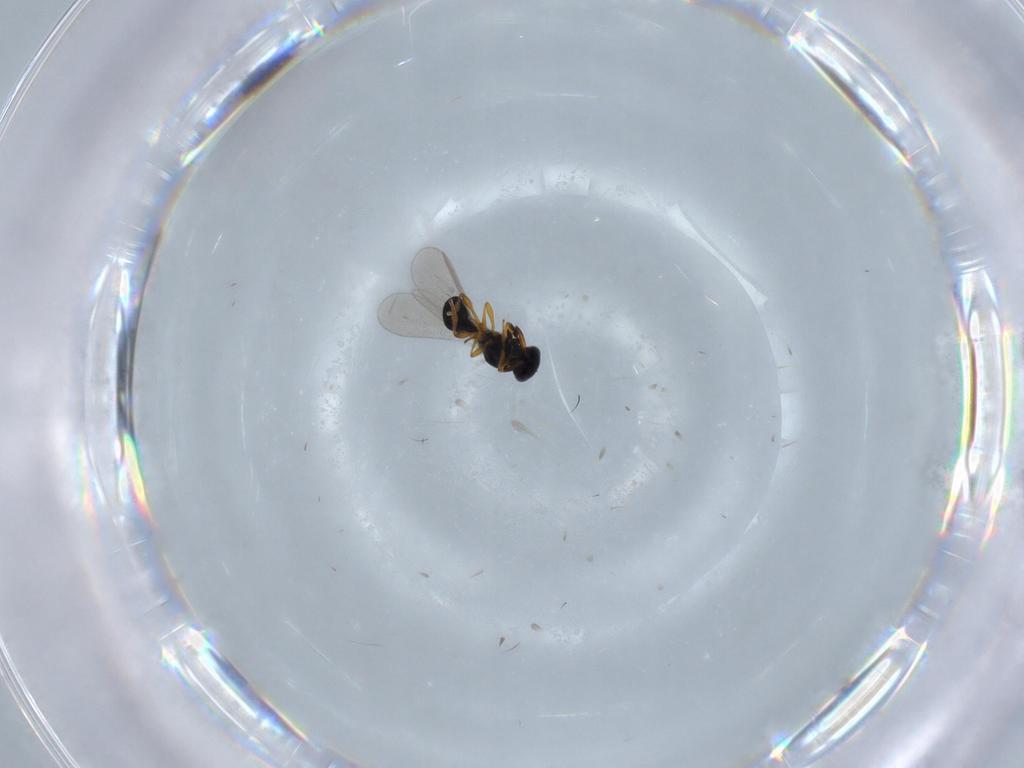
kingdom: Animalia
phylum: Arthropoda
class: Insecta
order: Hymenoptera
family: Platygastridae
